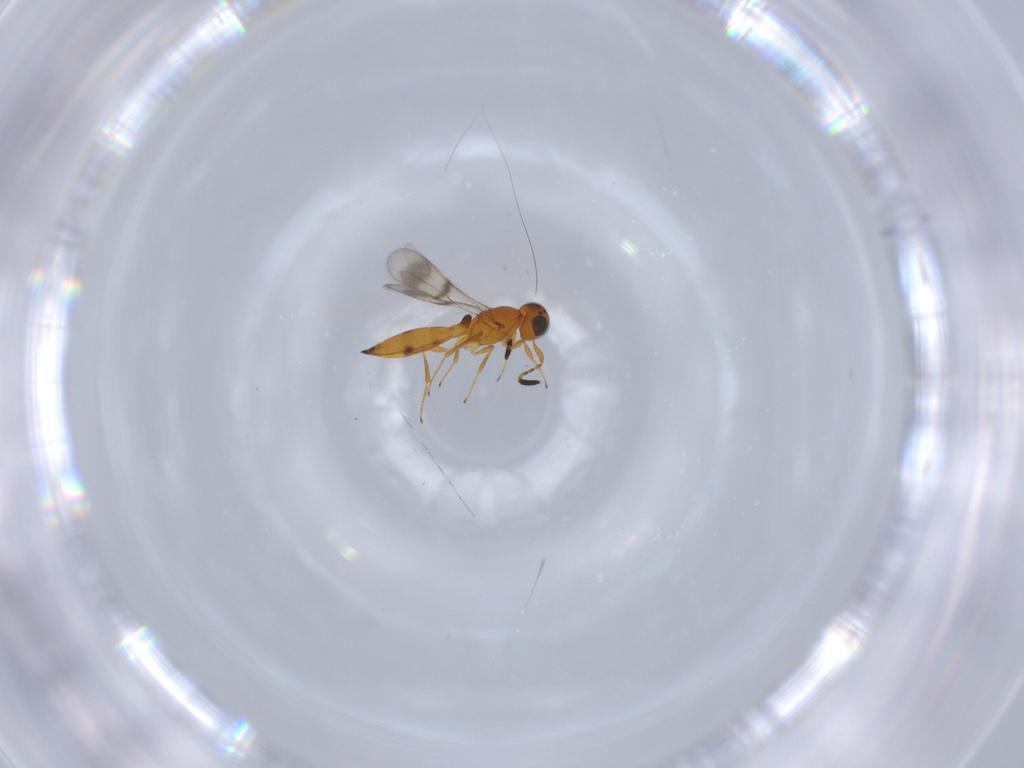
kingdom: Animalia
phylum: Arthropoda
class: Insecta
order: Hymenoptera
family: Scelionidae
